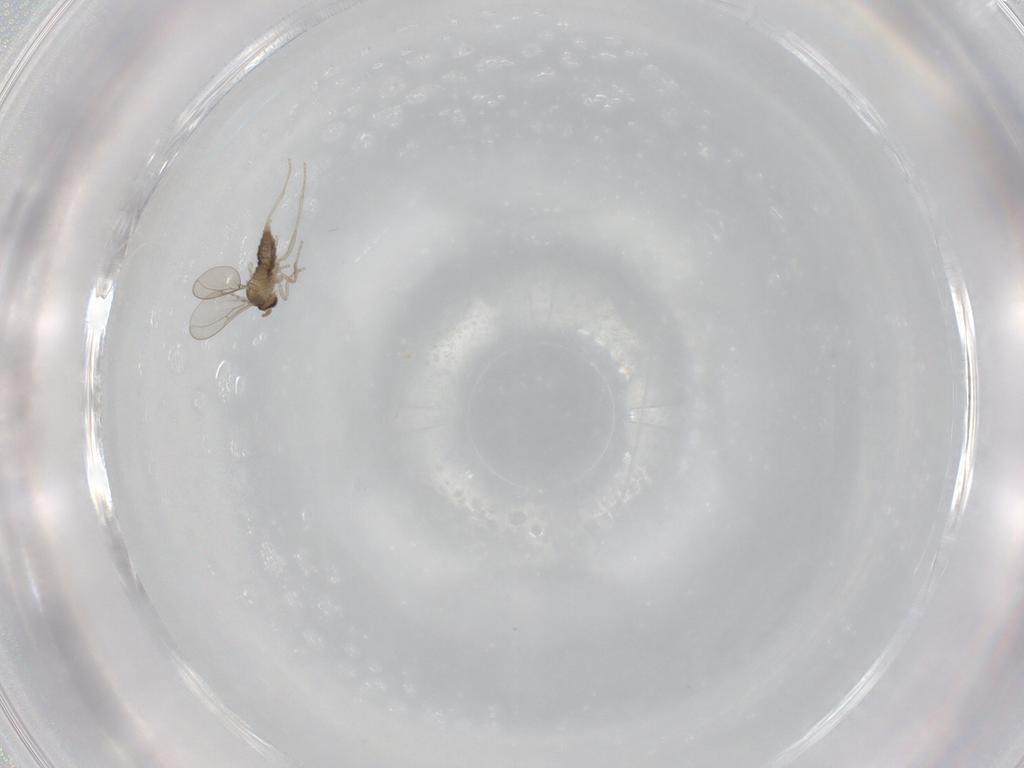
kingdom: Animalia
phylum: Arthropoda
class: Insecta
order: Diptera
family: Cecidomyiidae
